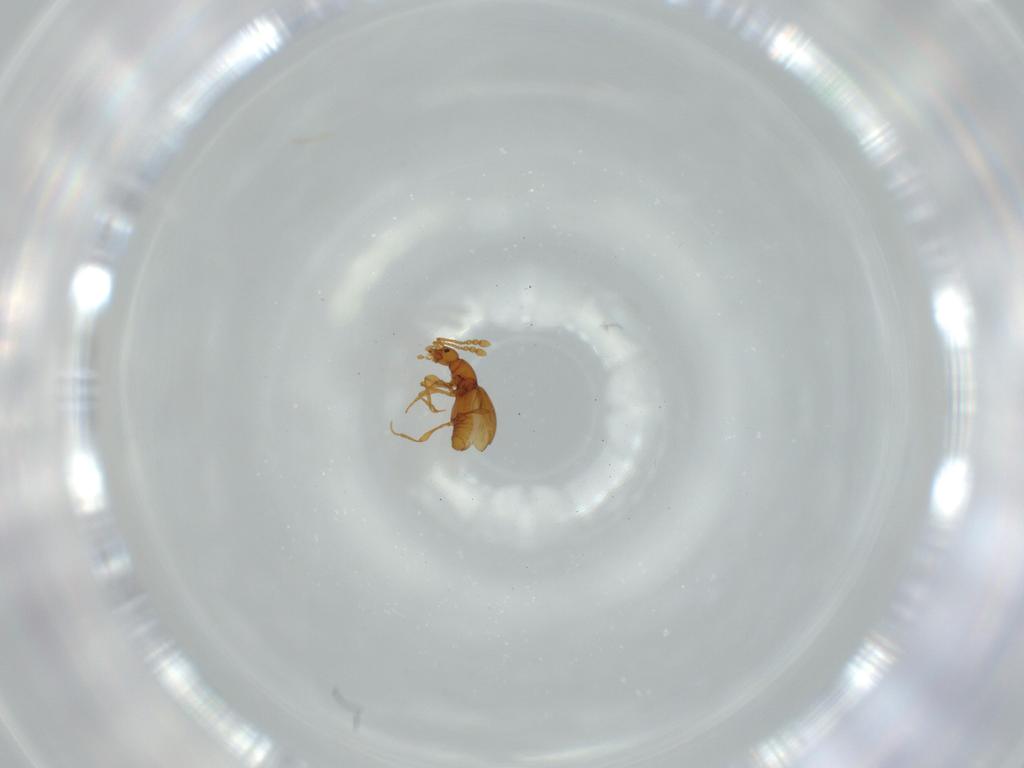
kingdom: Animalia
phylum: Arthropoda
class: Insecta
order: Coleoptera
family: Staphylinidae
